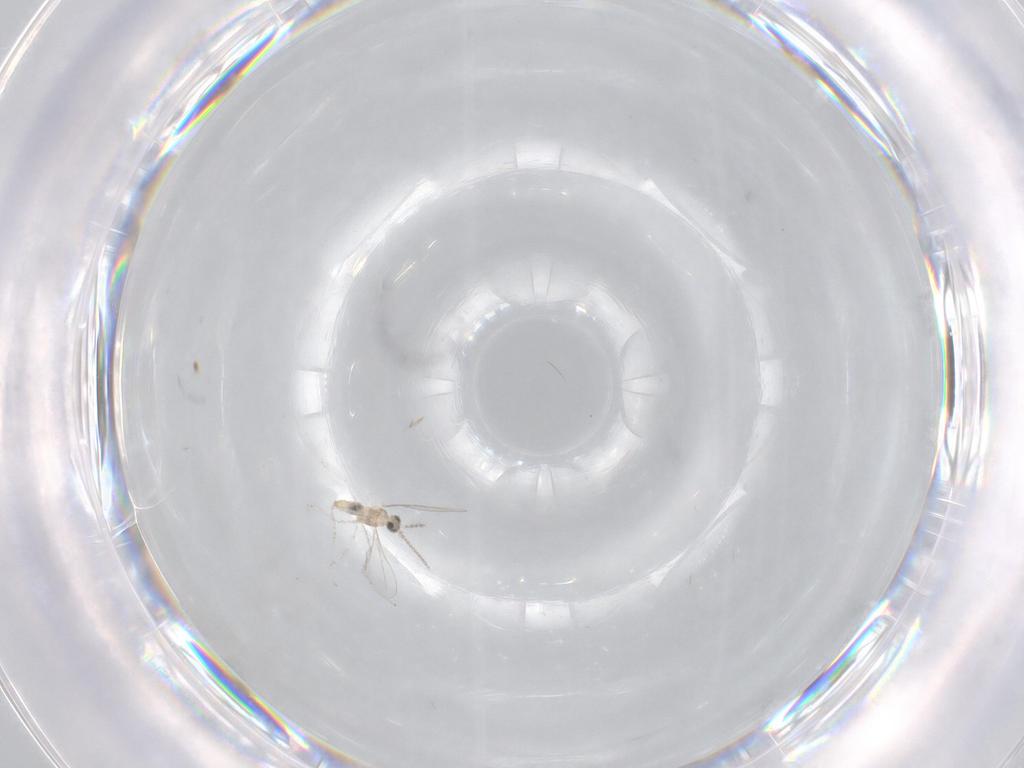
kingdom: Animalia
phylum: Arthropoda
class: Insecta
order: Diptera
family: Cecidomyiidae
